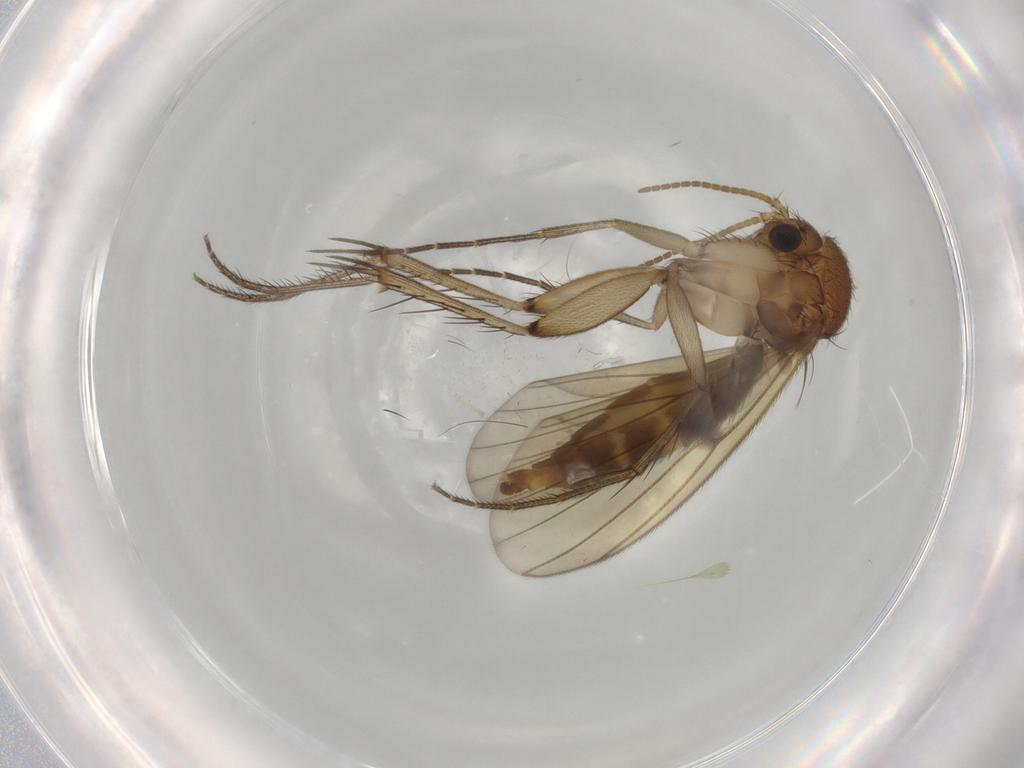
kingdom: Animalia
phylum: Arthropoda
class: Insecta
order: Diptera
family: Mycetophilidae
